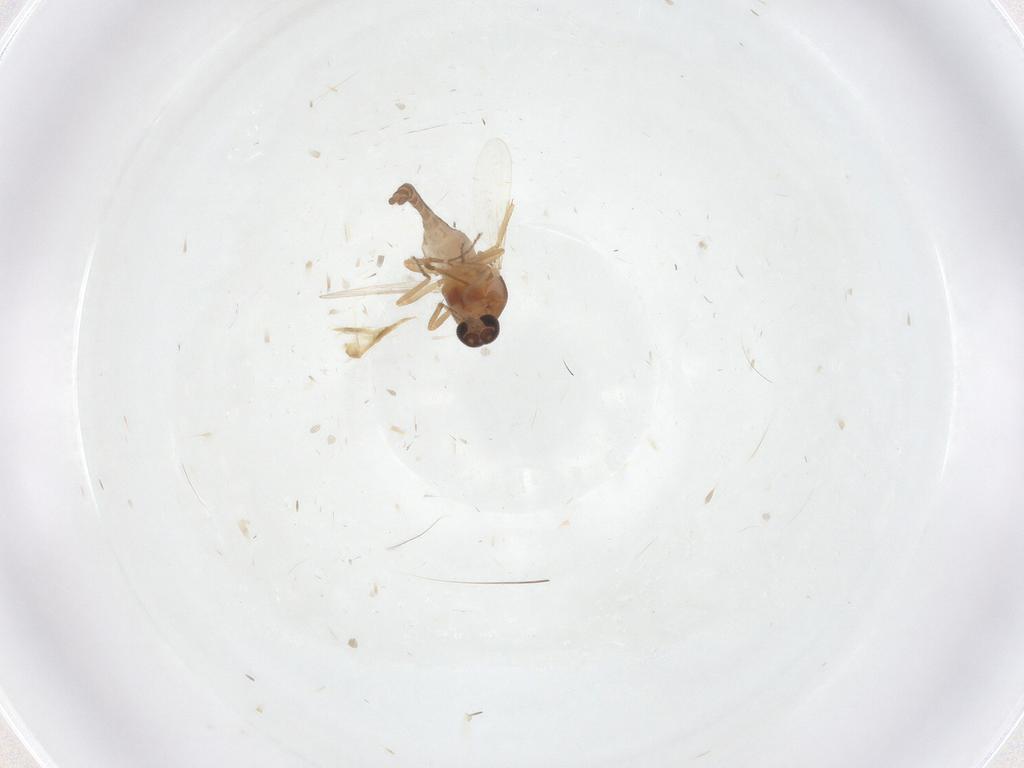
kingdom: Animalia
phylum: Arthropoda
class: Insecta
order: Diptera
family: Ceratopogonidae
